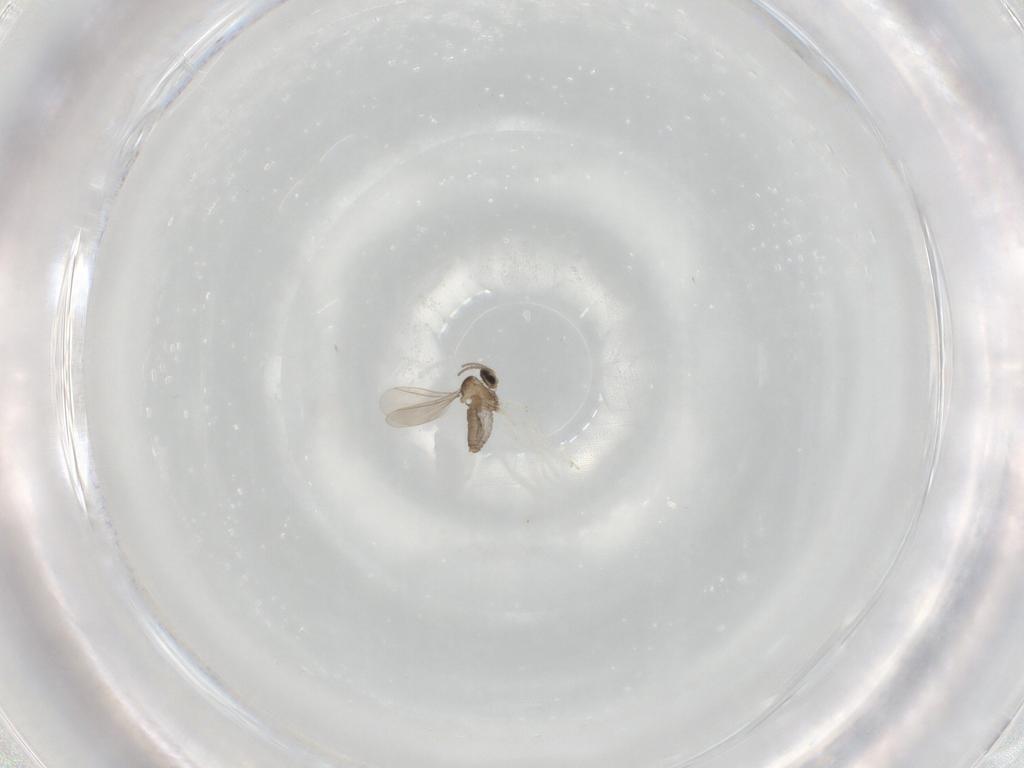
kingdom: Animalia
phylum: Arthropoda
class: Insecta
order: Diptera
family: Cecidomyiidae
